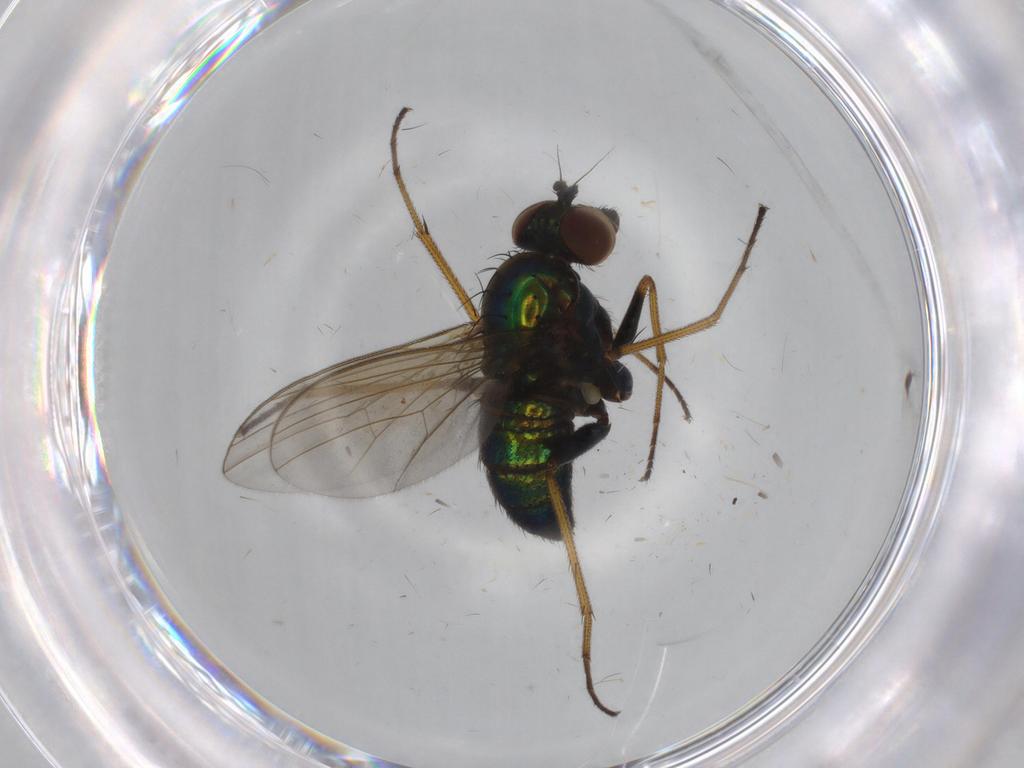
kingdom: Animalia
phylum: Arthropoda
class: Insecta
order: Diptera
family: Dolichopodidae
